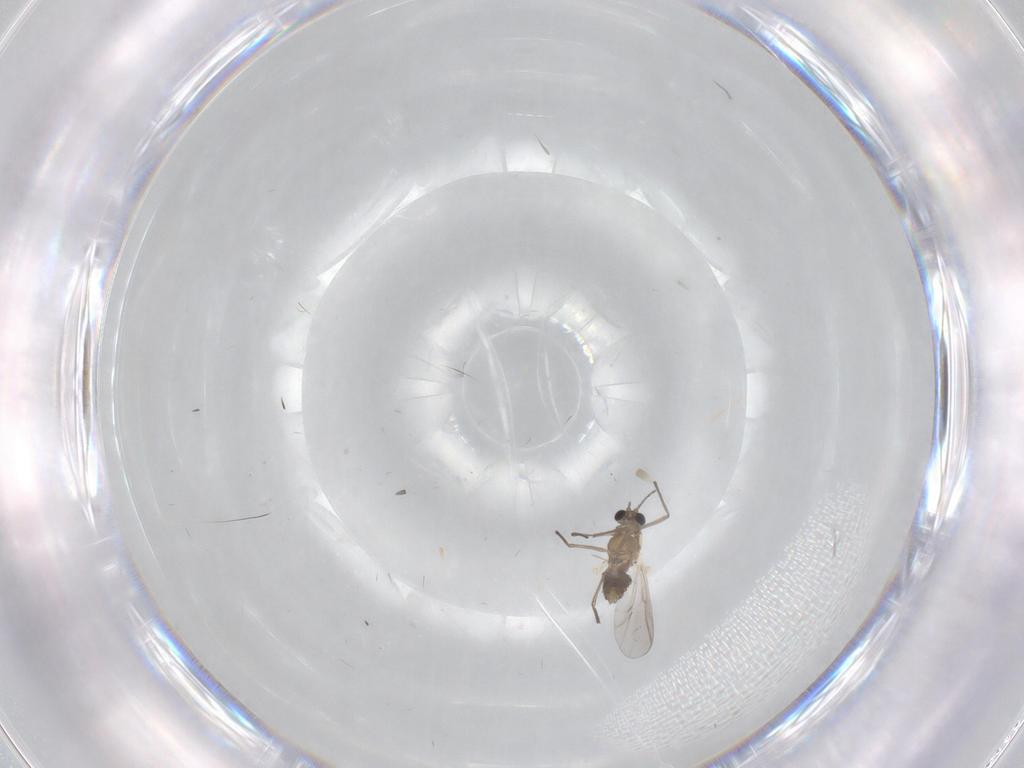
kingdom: Animalia
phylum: Arthropoda
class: Insecta
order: Diptera
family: Chironomidae
